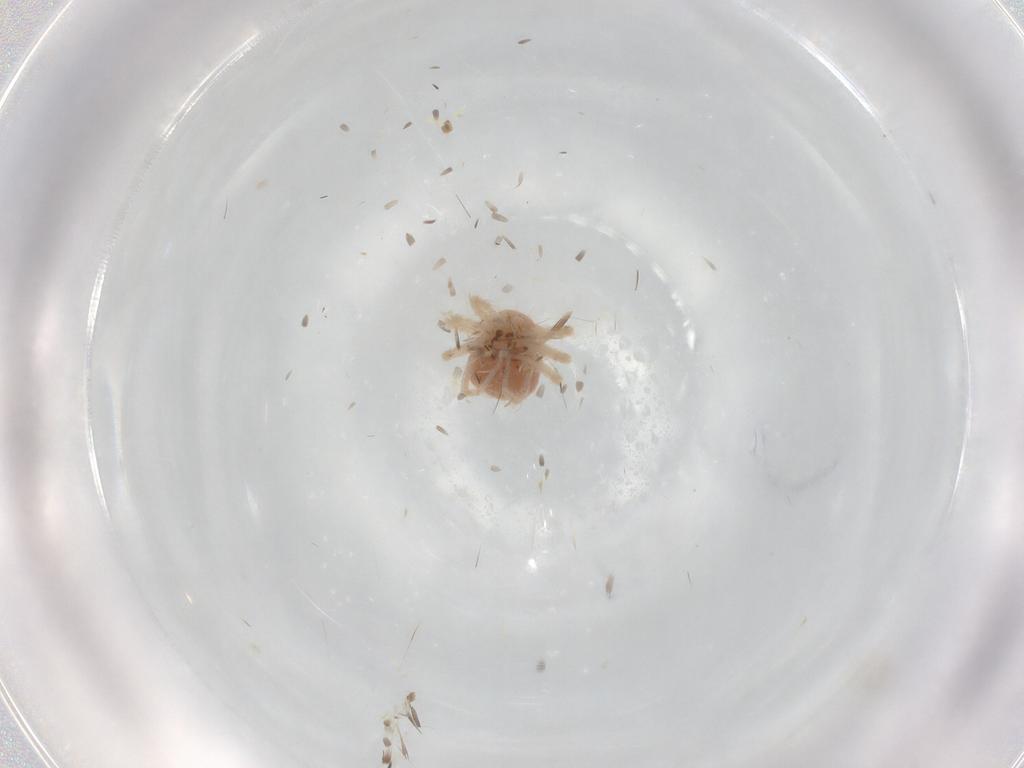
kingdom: Animalia
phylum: Arthropoda
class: Arachnida
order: Trombidiformes
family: Anystidae
